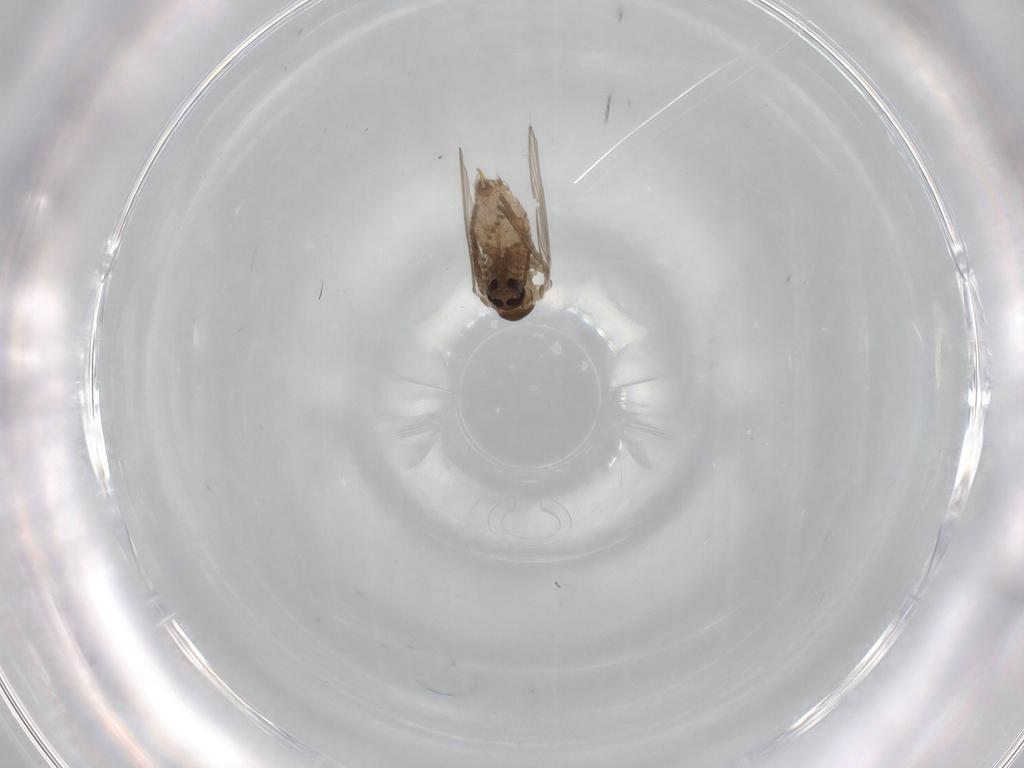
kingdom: Animalia
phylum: Arthropoda
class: Insecta
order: Diptera
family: Psychodidae
